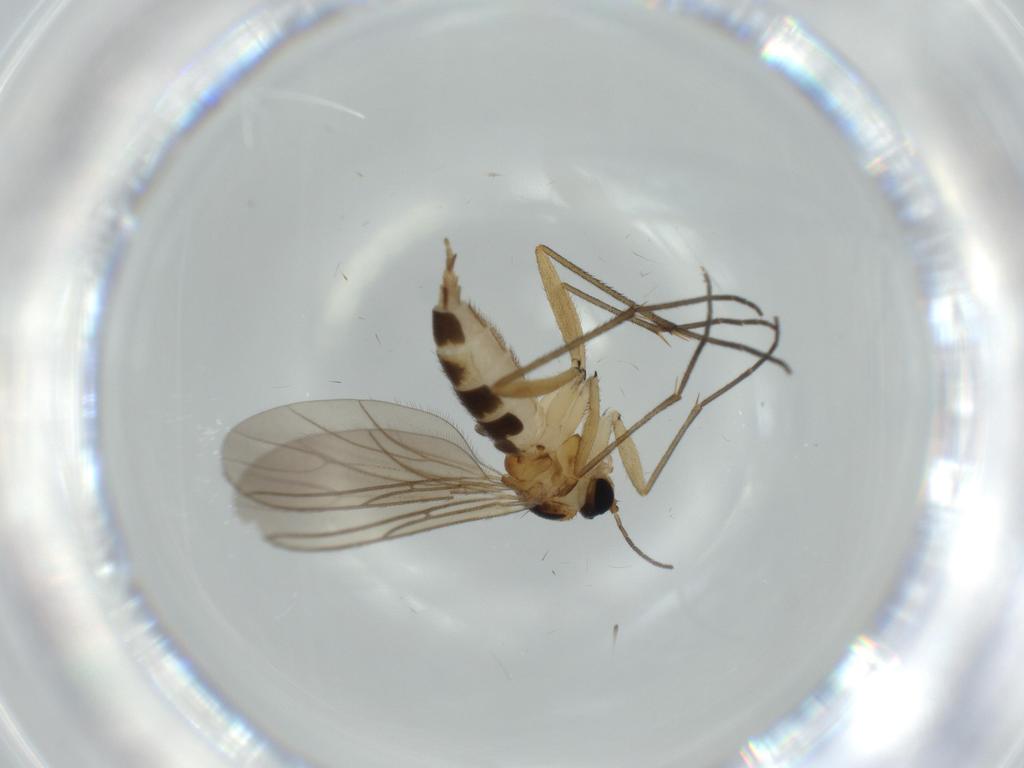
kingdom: Animalia
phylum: Arthropoda
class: Insecta
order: Diptera
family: Sciaridae
